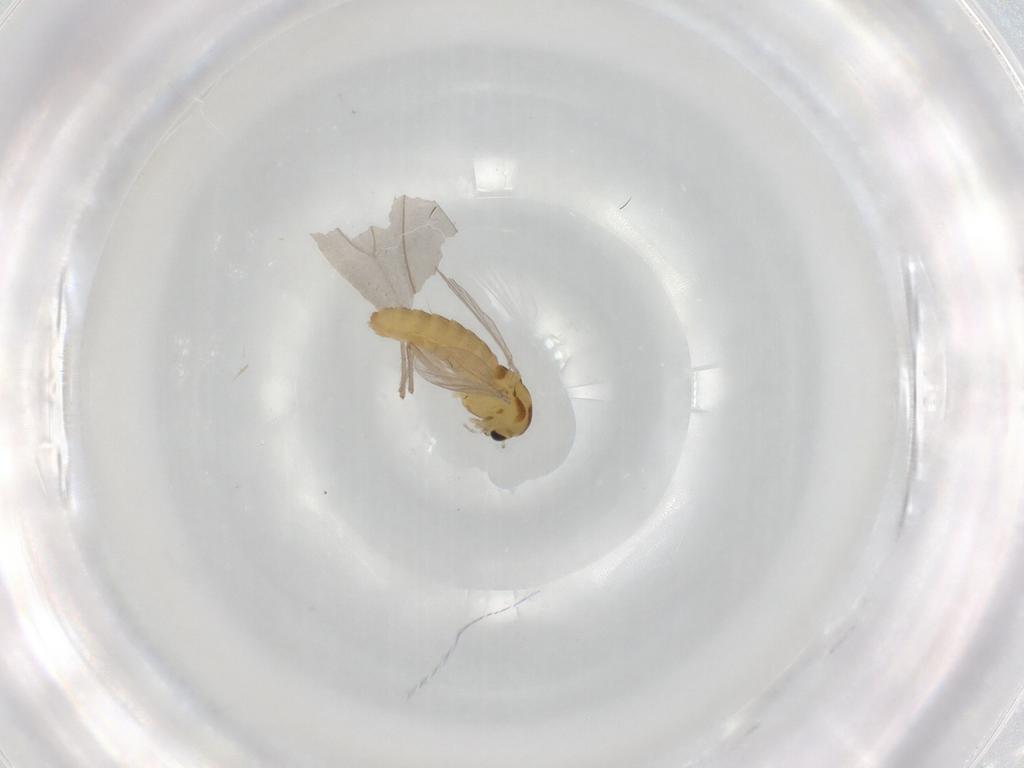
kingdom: Animalia
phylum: Arthropoda
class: Insecta
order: Diptera
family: Chironomidae
